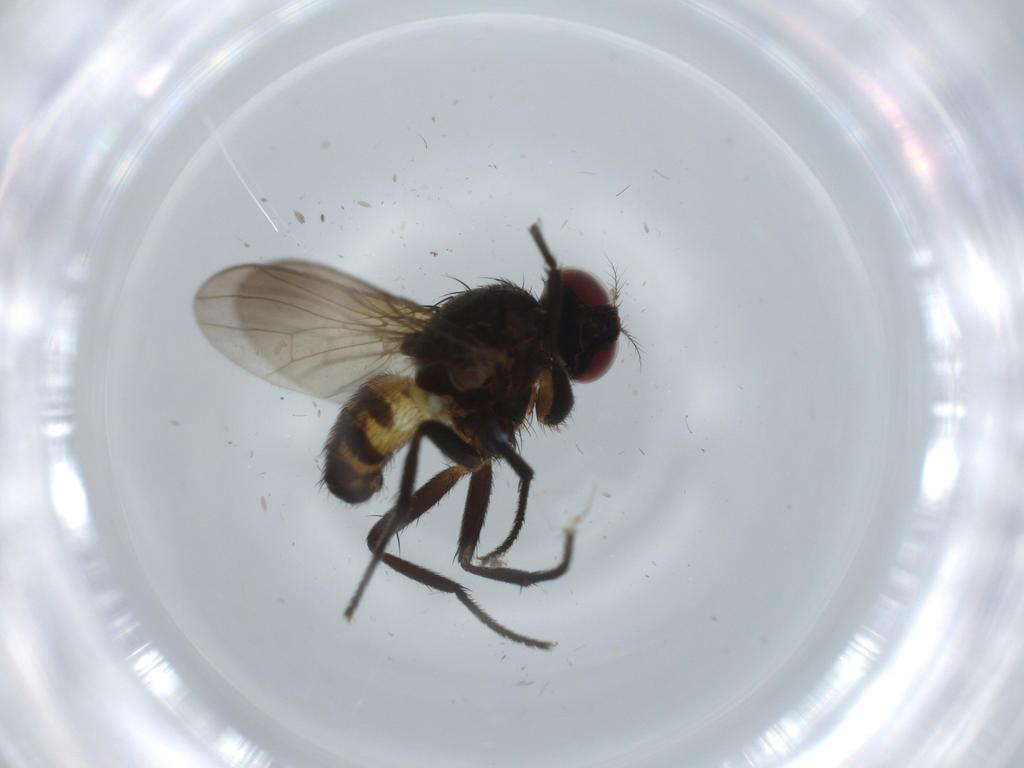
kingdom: Animalia
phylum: Arthropoda
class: Insecta
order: Diptera
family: Anthomyiidae
